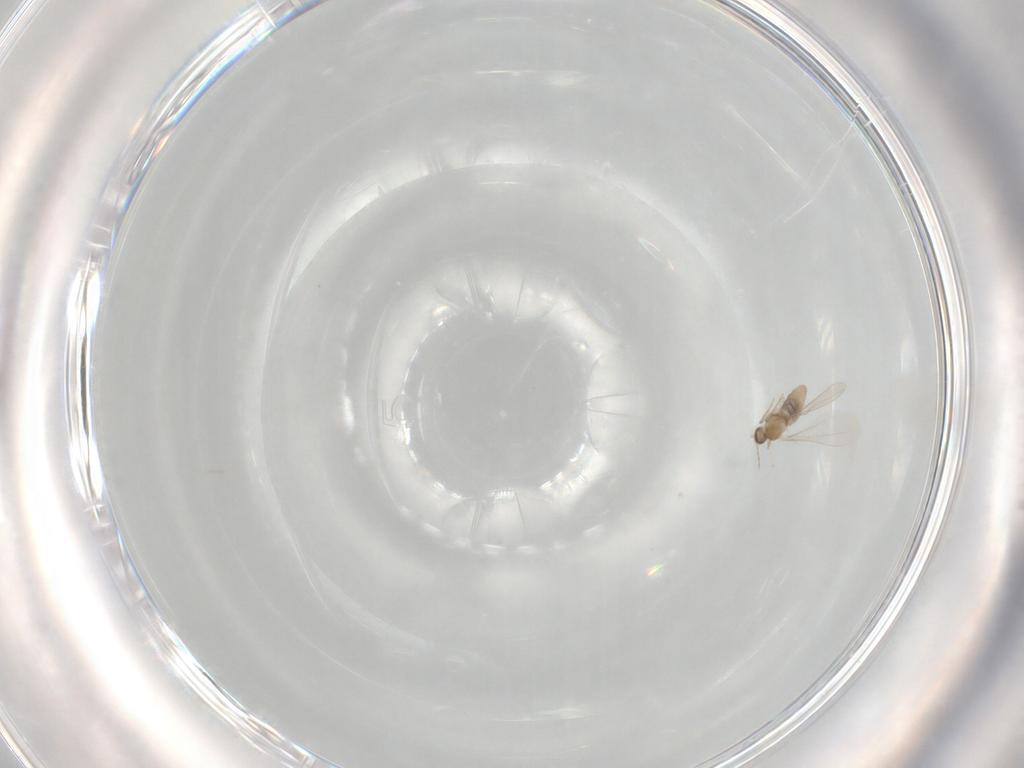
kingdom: Animalia
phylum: Arthropoda
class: Insecta
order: Diptera
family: Cecidomyiidae
